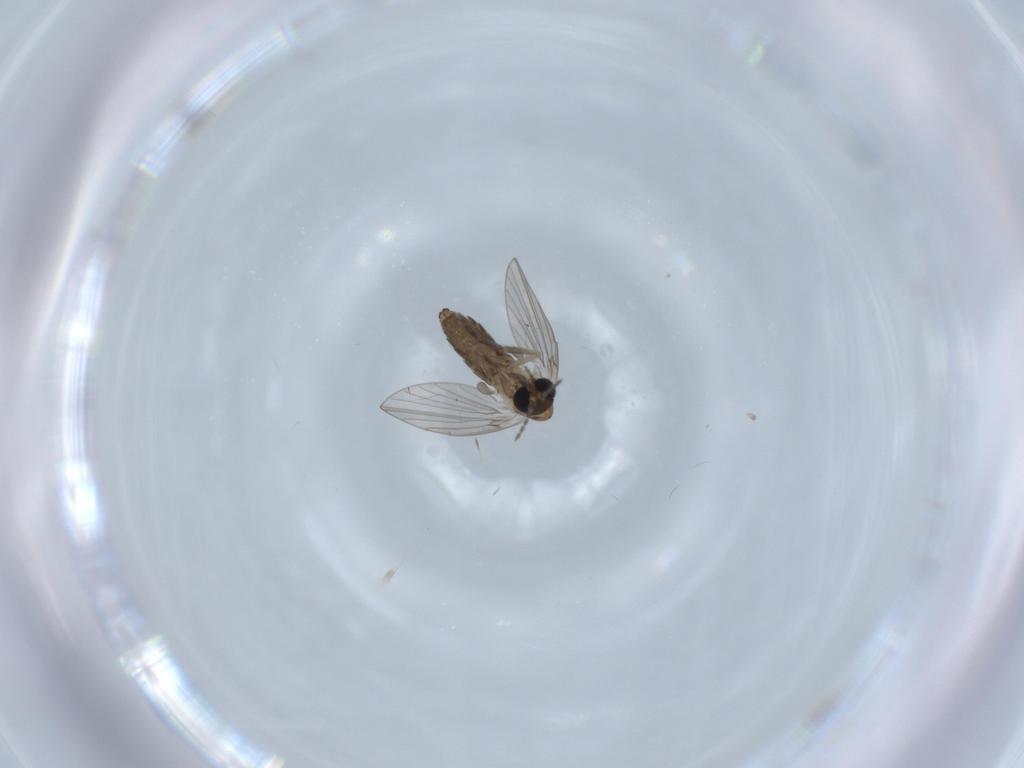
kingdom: Animalia
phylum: Arthropoda
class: Insecta
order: Diptera
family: Psychodidae
